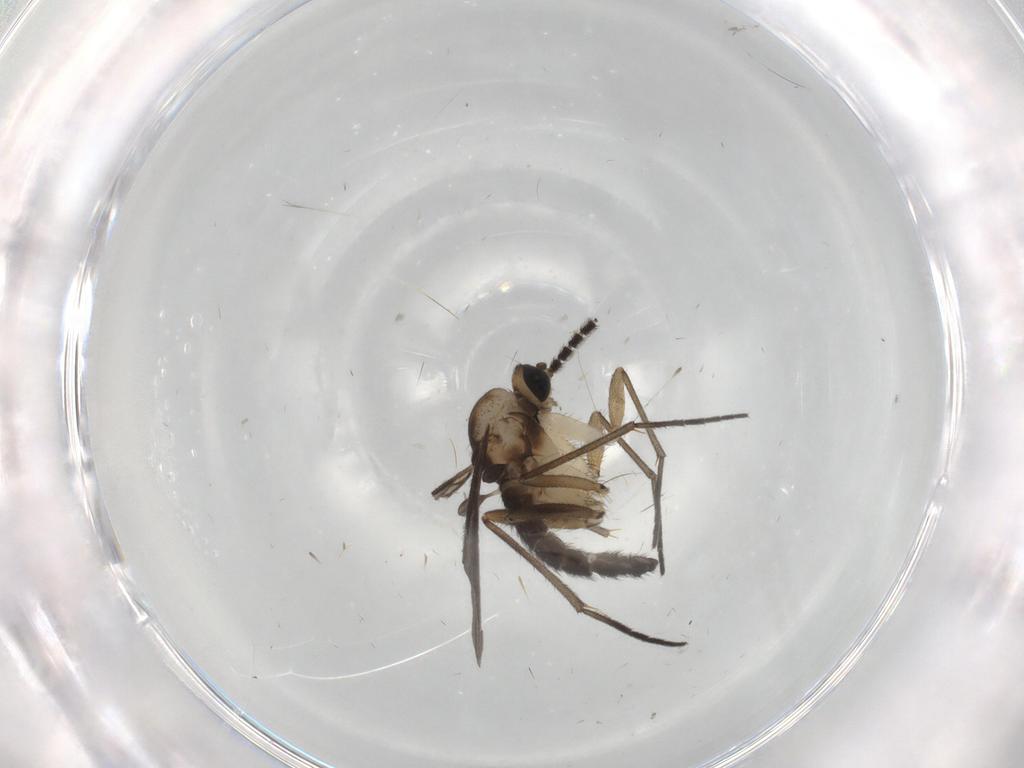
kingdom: Animalia
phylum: Arthropoda
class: Insecta
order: Diptera
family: Sciaridae
